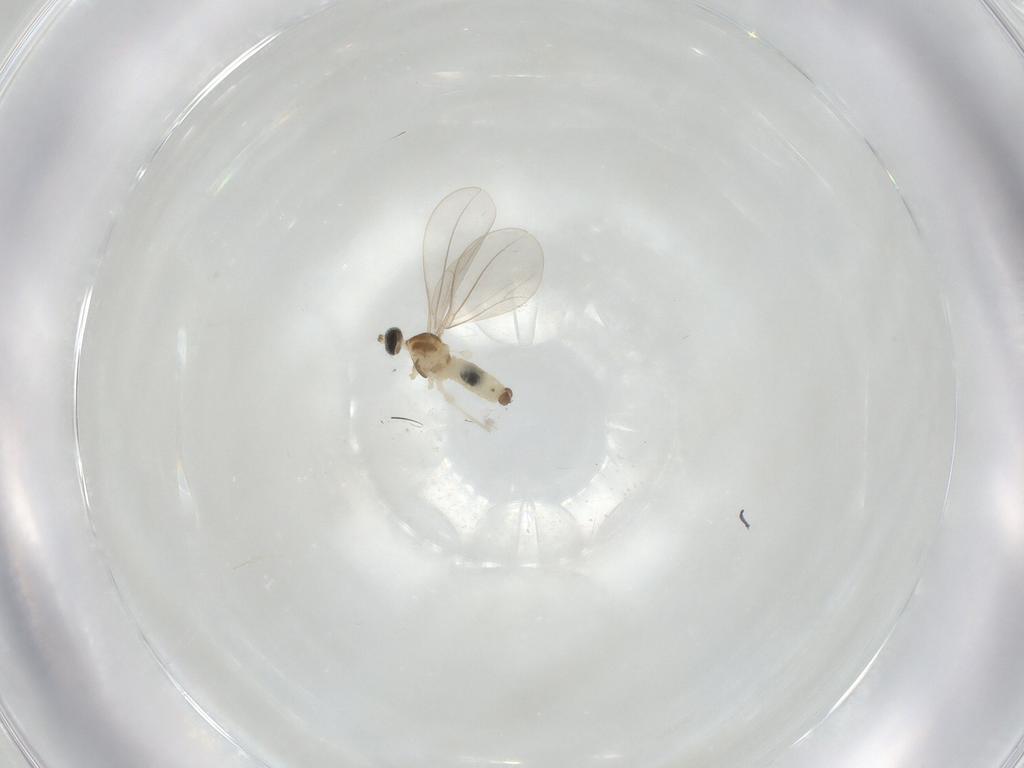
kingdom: Animalia
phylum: Arthropoda
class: Insecta
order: Diptera
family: Cecidomyiidae
